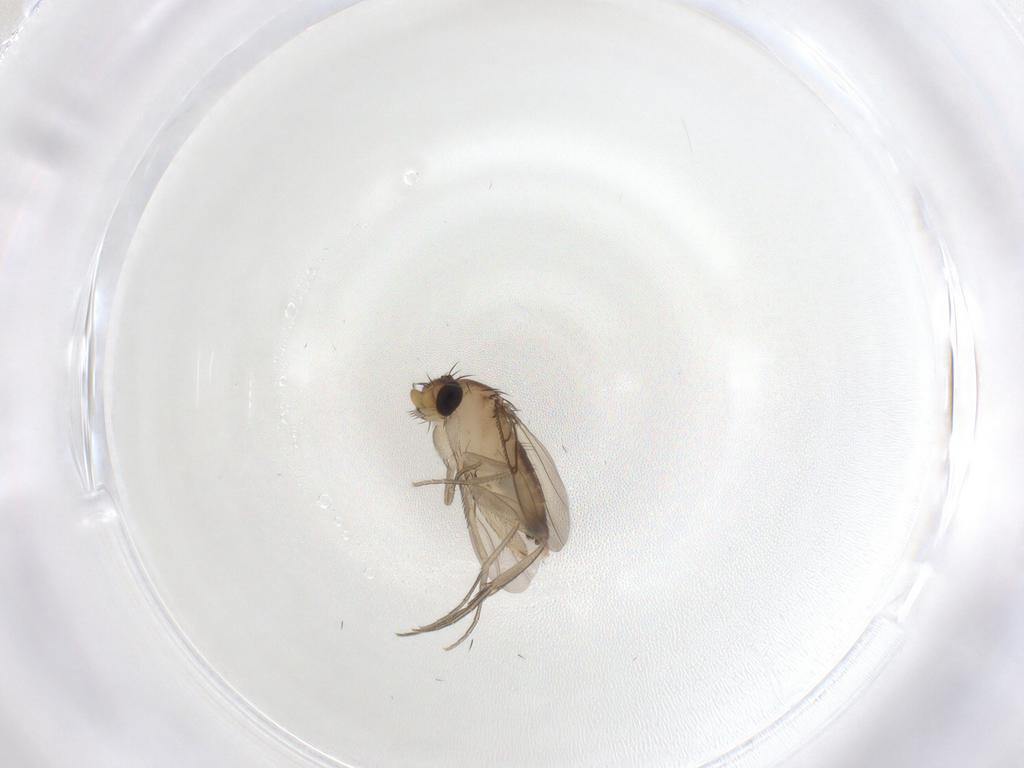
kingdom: Animalia
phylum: Arthropoda
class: Insecta
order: Diptera
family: Phoridae
